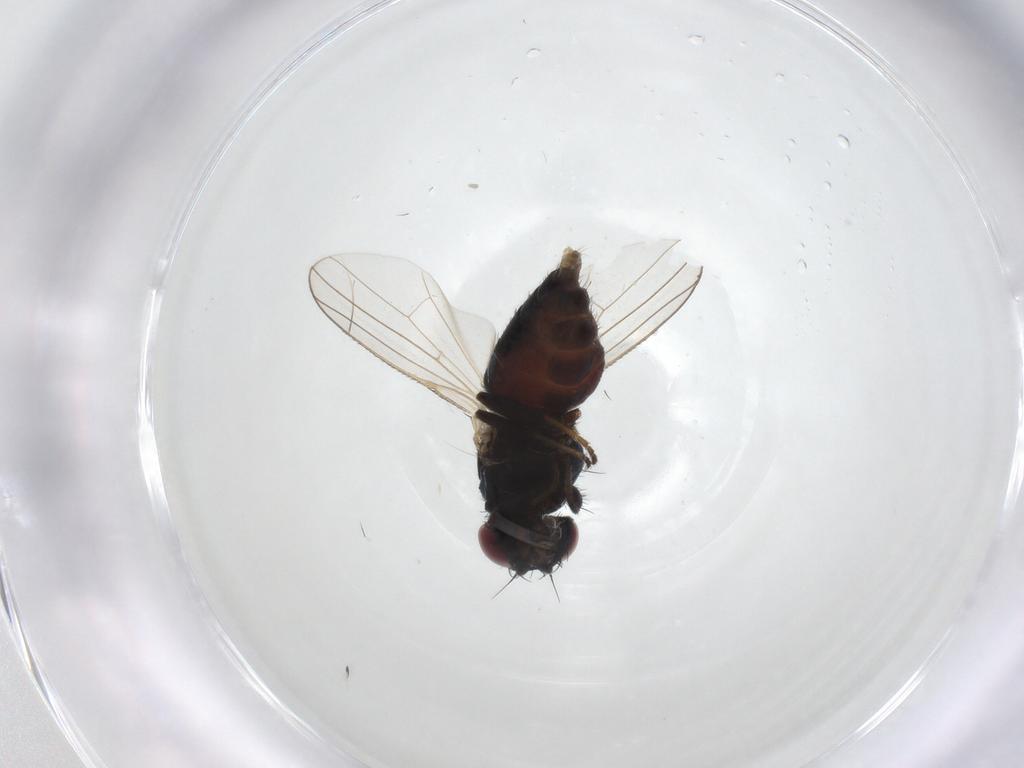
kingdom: Animalia
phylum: Arthropoda
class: Insecta
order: Diptera
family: Carnidae
